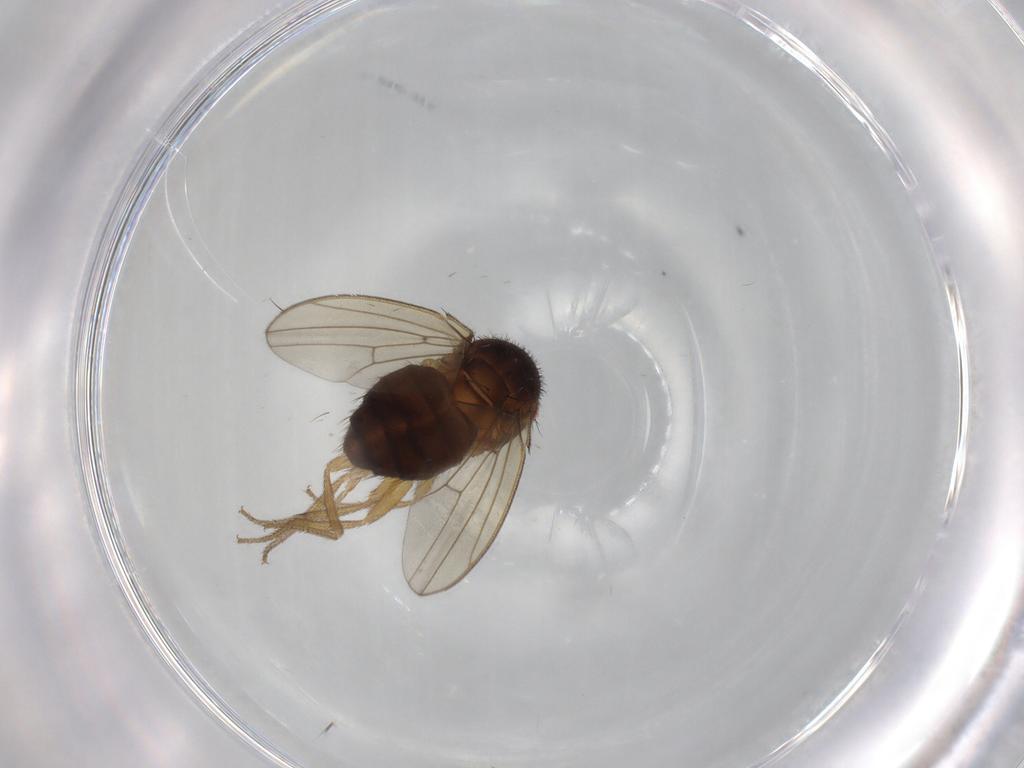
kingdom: Animalia
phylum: Arthropoda
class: Insecta
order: Diptera
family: Drosophilidae
